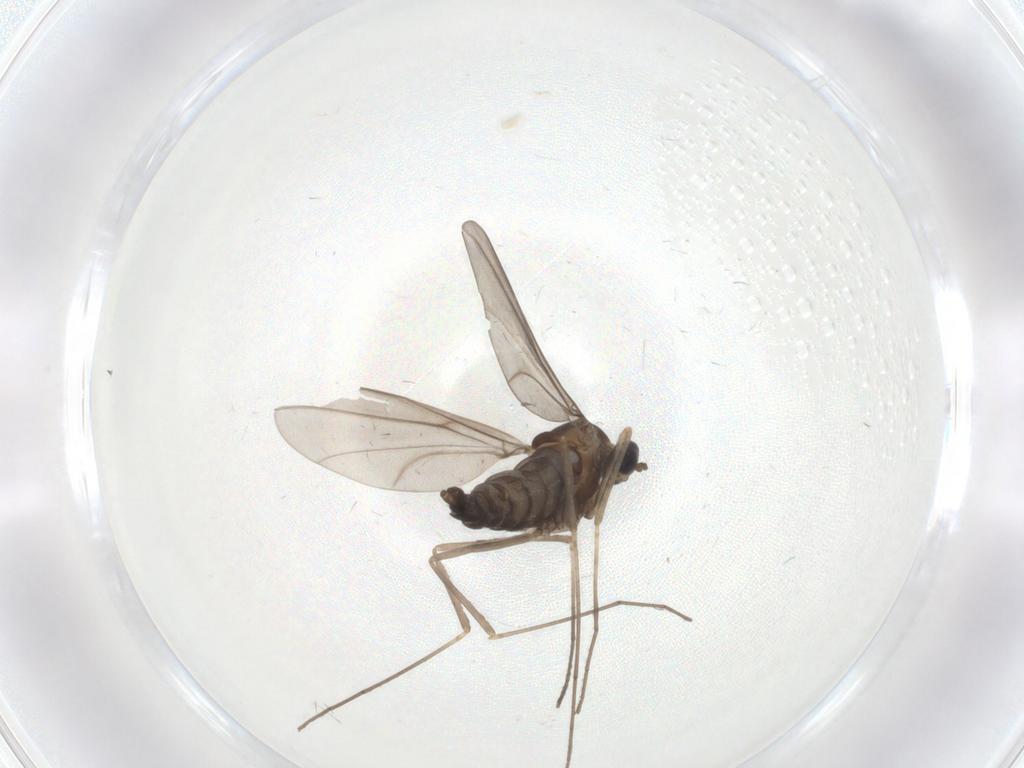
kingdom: Animalia
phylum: Arthropoda
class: Insecta
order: Diptera
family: Cecidomyiidae
